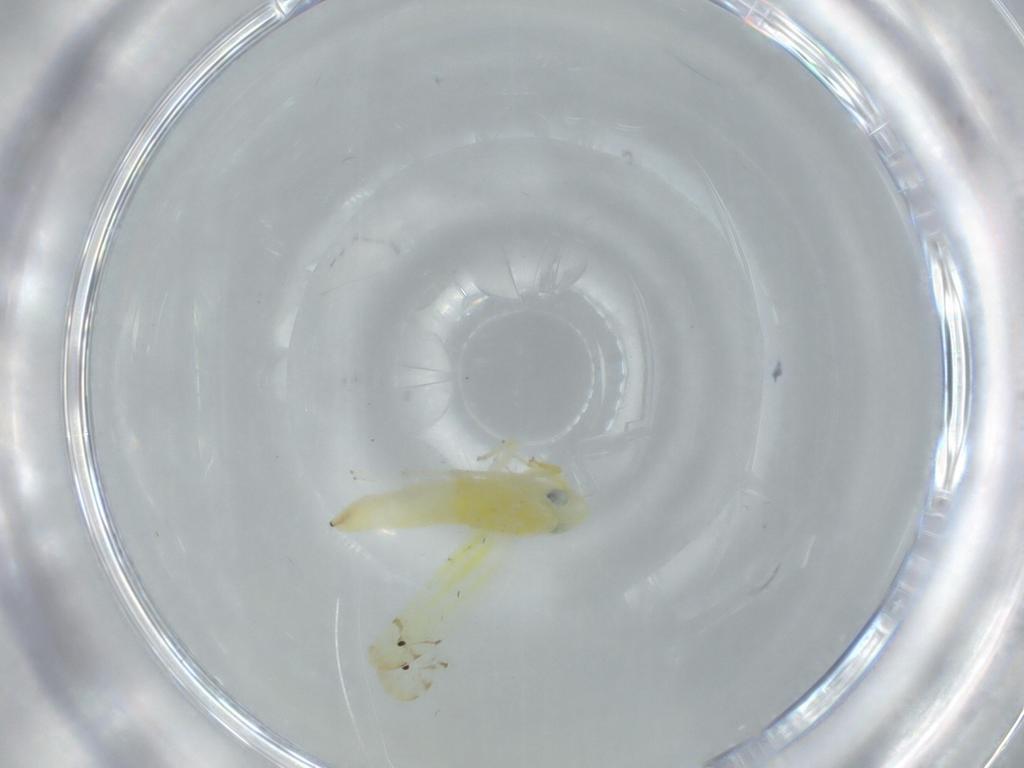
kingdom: Animalia
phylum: Arthropoda
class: Insecta
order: Hemiptera
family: Cicadellidae
